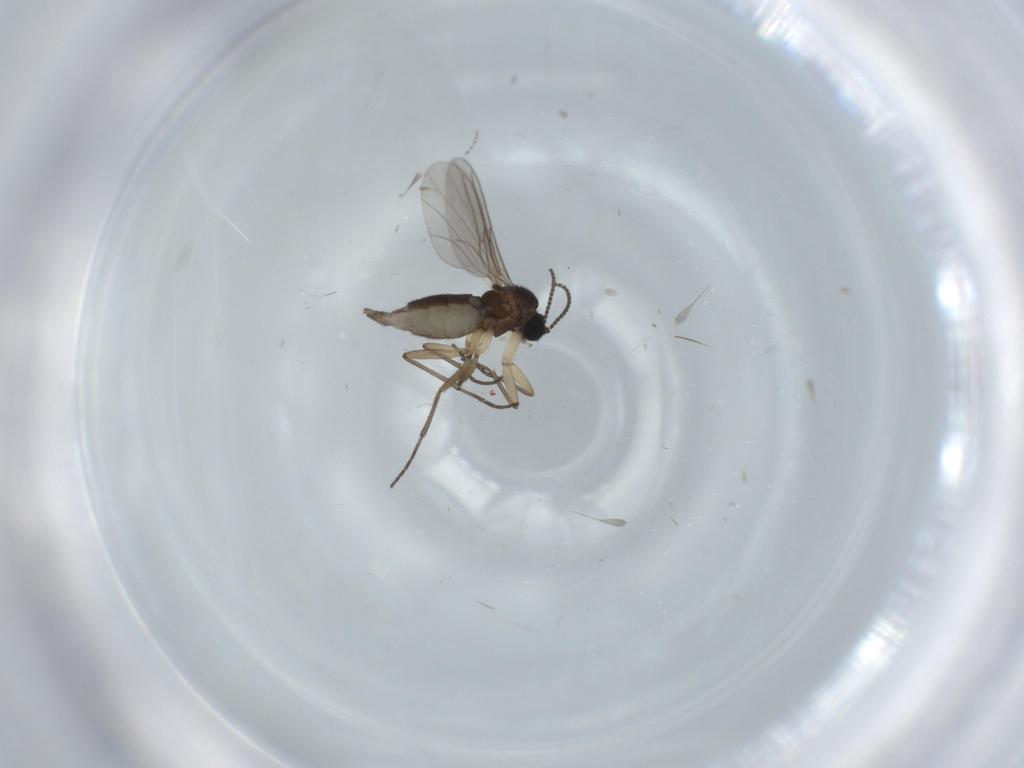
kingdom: Animalia
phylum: Arthropoda
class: Insecta
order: Diptera
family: Sciaridae
